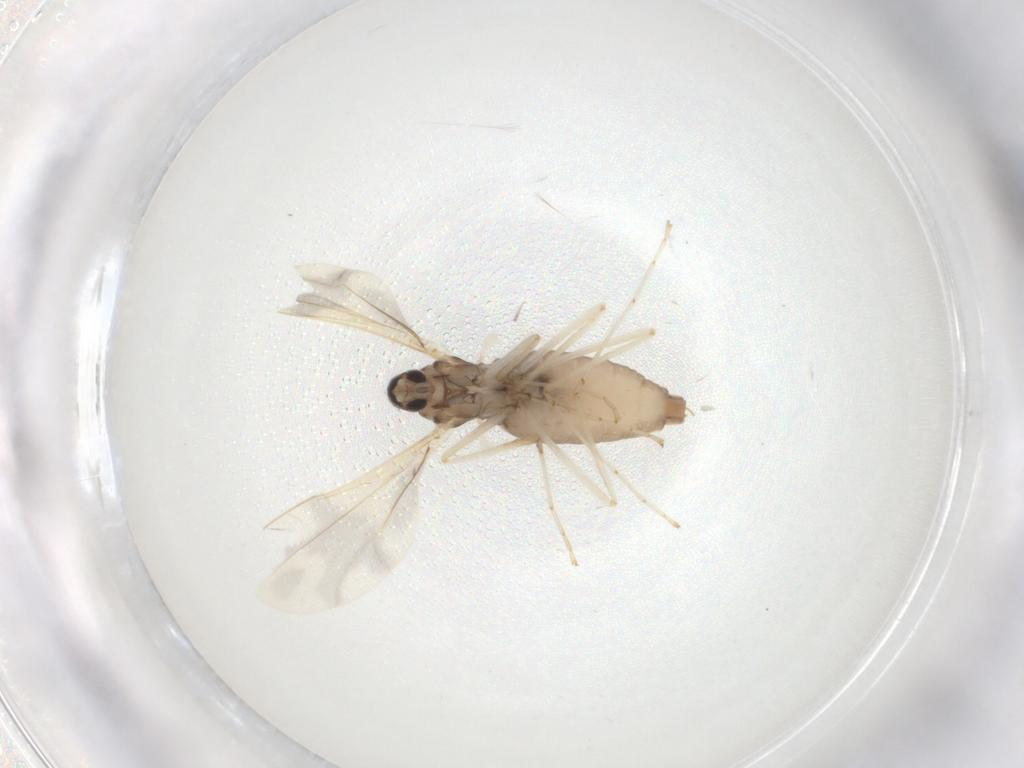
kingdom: Animalia
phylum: Arthropoda
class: Insecta
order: Diptera
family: Cecidomyiidae
